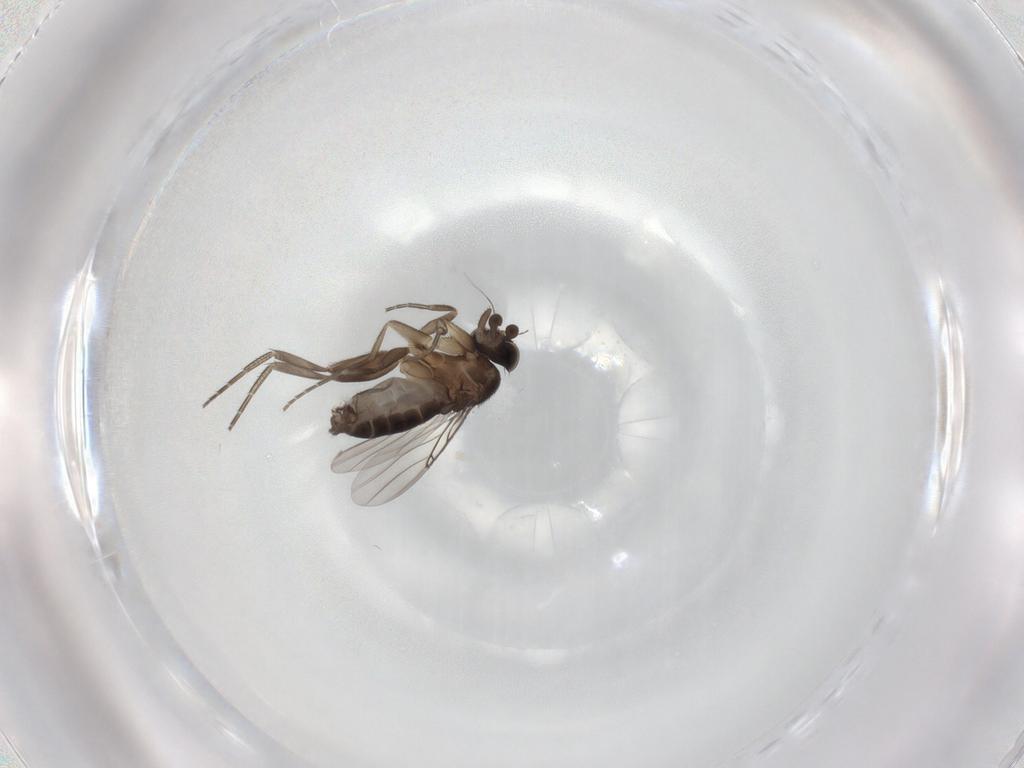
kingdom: Animalia
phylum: Arthropoda
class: Insecta
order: Diptera
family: Phoridae
